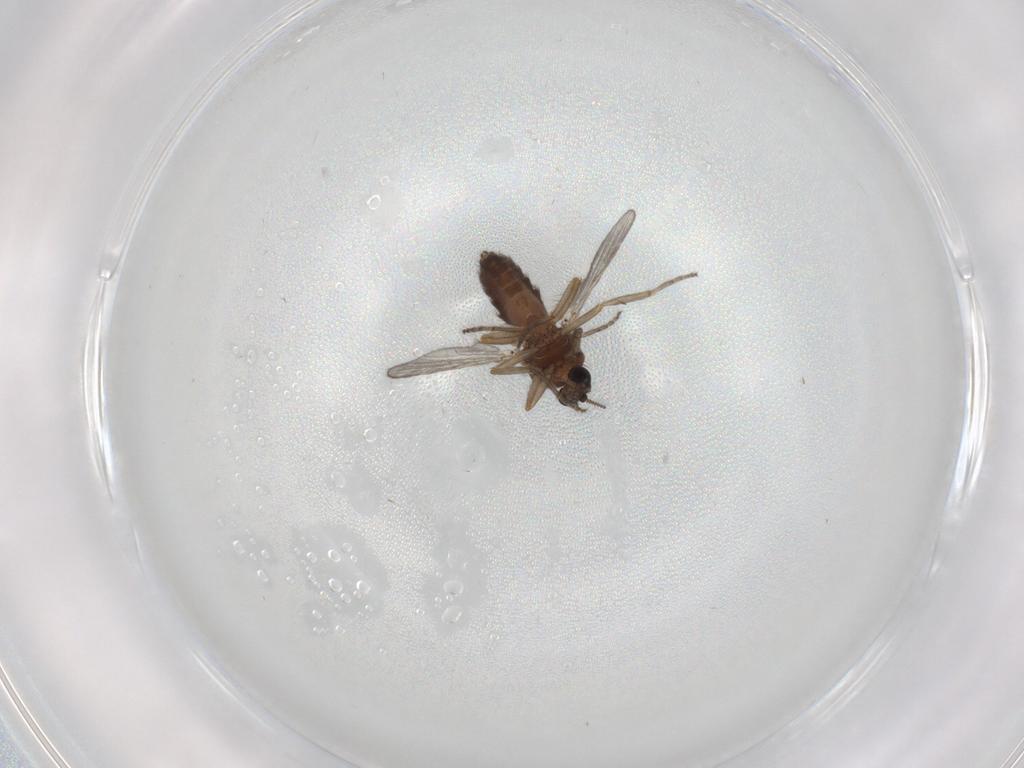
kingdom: Animalia
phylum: Arthropoda
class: Insecta
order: Diptera
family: Ceratopogonidae
